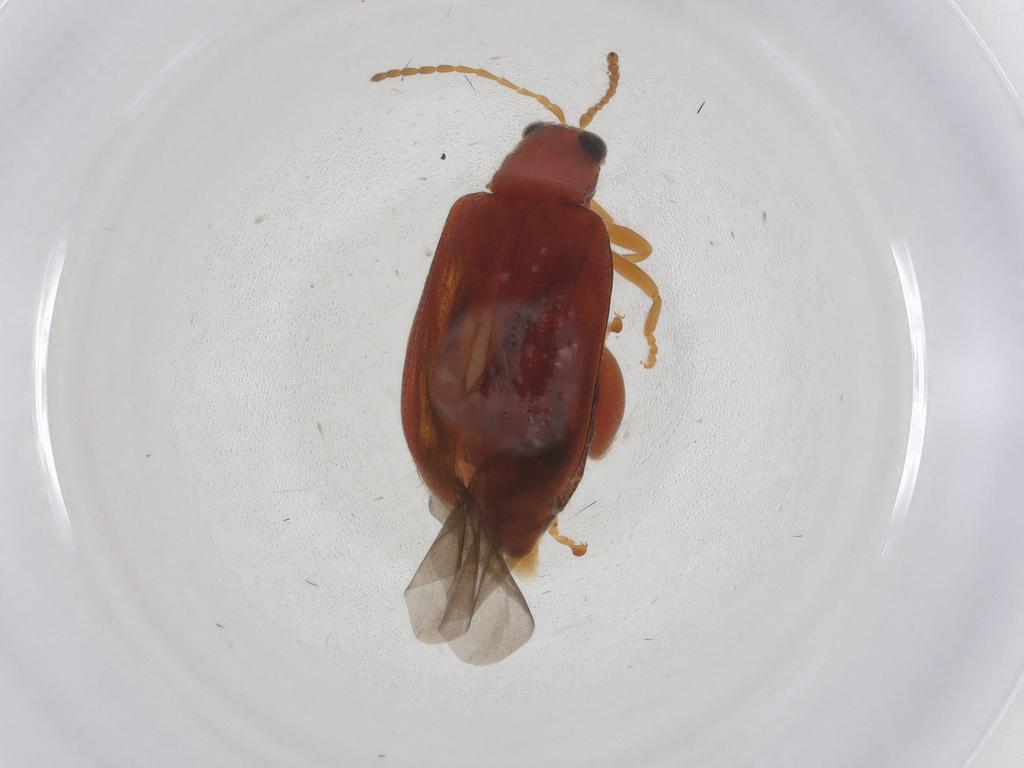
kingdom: Animalia
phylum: Arthropoda
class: Insecta
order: Coleoptera
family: Chrysomelidae
